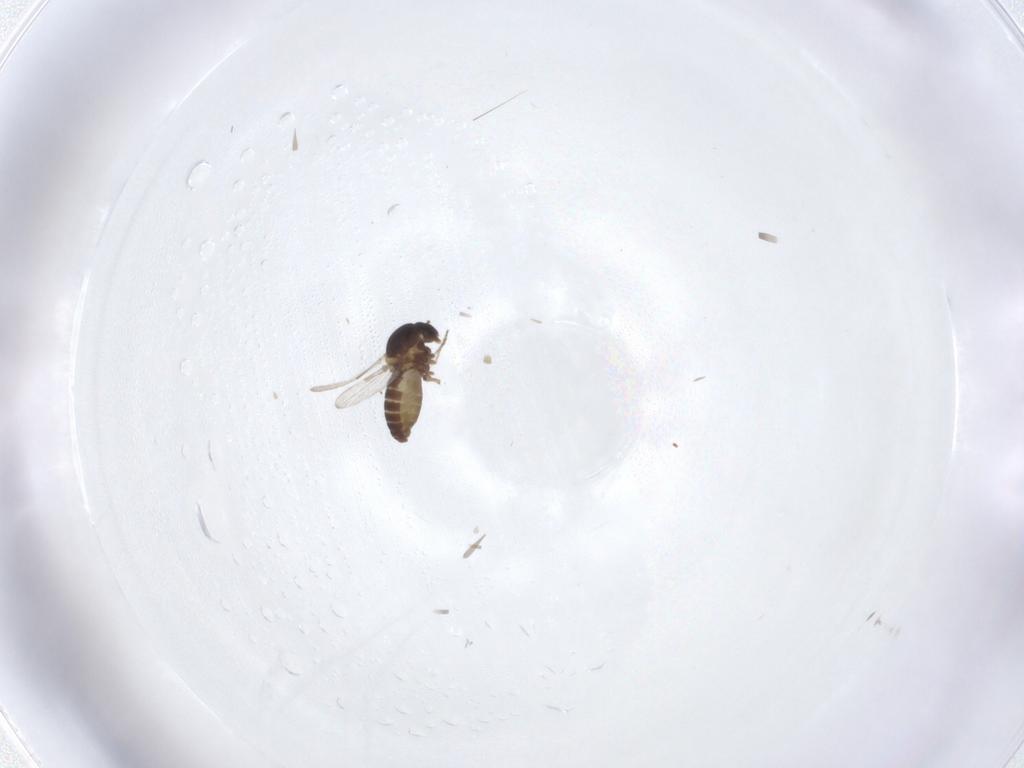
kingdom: Animalia
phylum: Arthropoda
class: Insecta
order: Diptera
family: Ceratopogonidae
